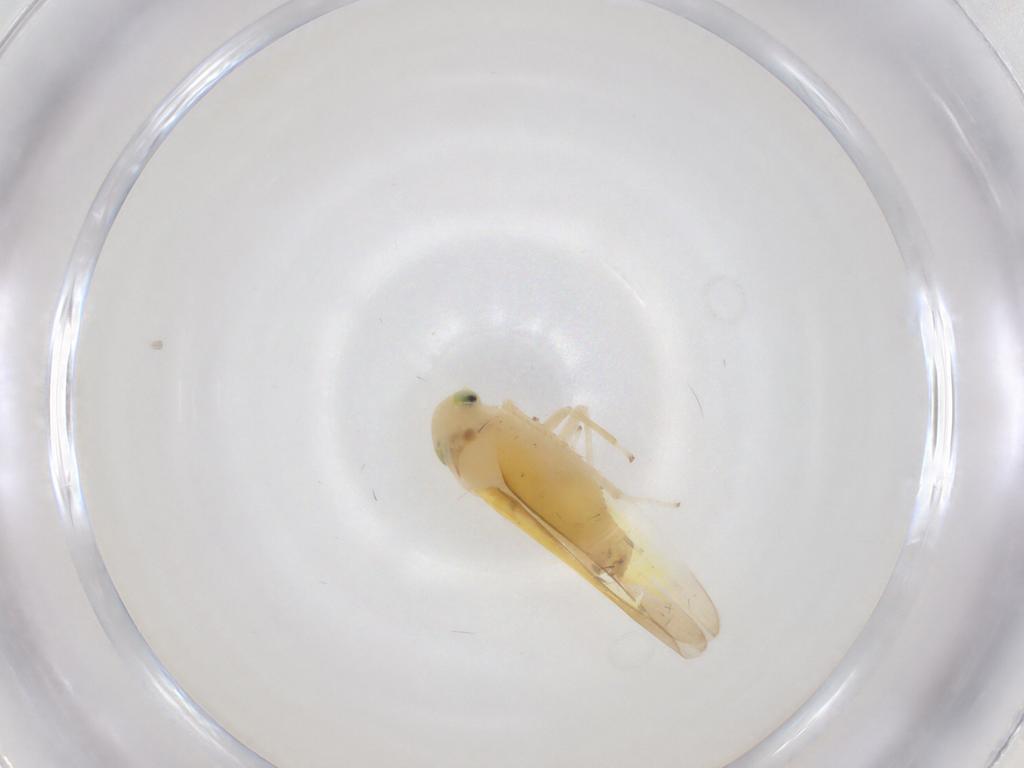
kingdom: Animalia
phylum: Arthropoda
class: Insecta
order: Hemiptera
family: Cicadellidae
